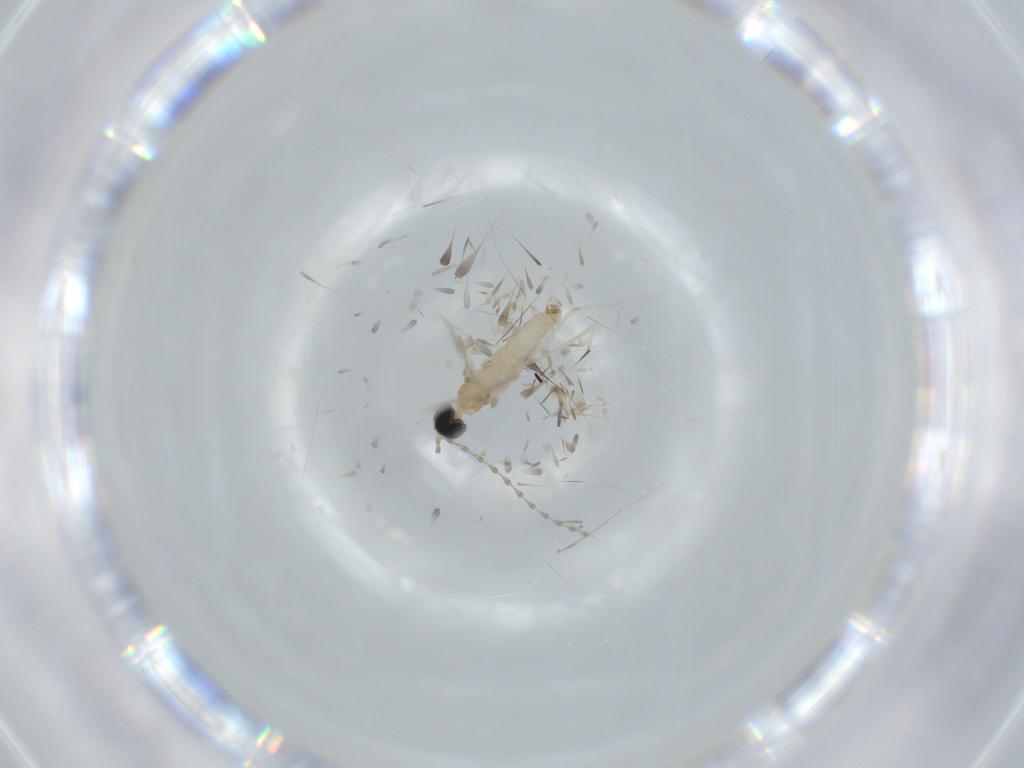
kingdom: Animalia
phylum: Arthropoda
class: Insecta
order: Diptera
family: Cecidomyiidae
